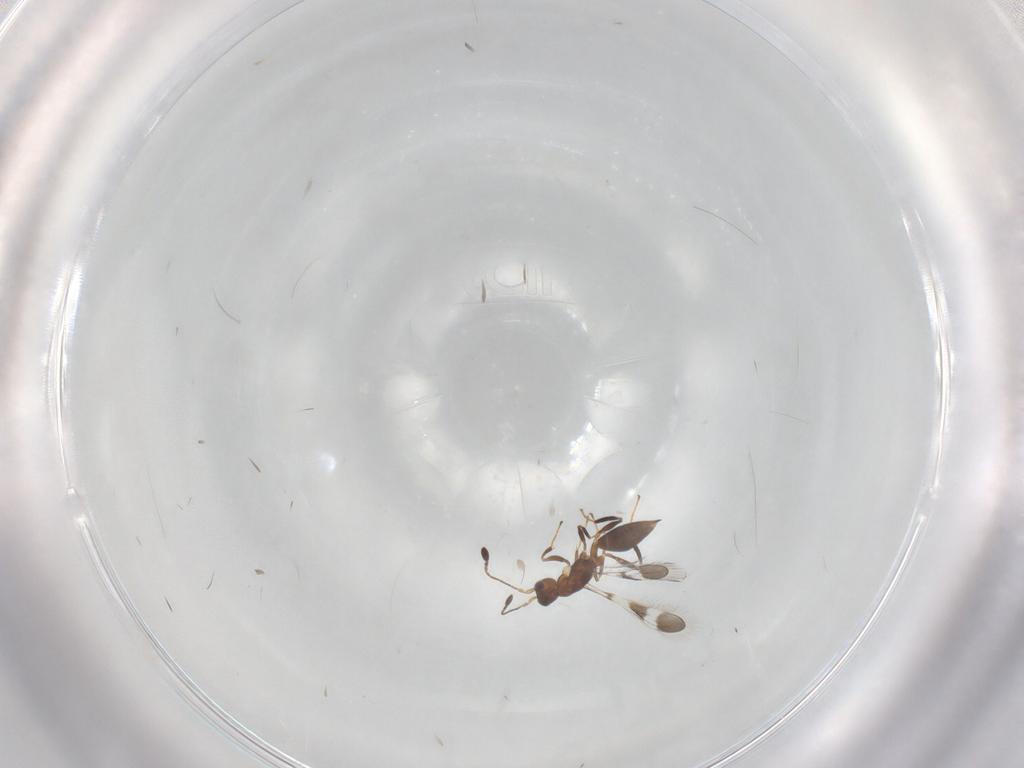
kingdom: Animalia
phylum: Arthropoda
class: Insecta
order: Hymenoptera
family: Mymaridae
